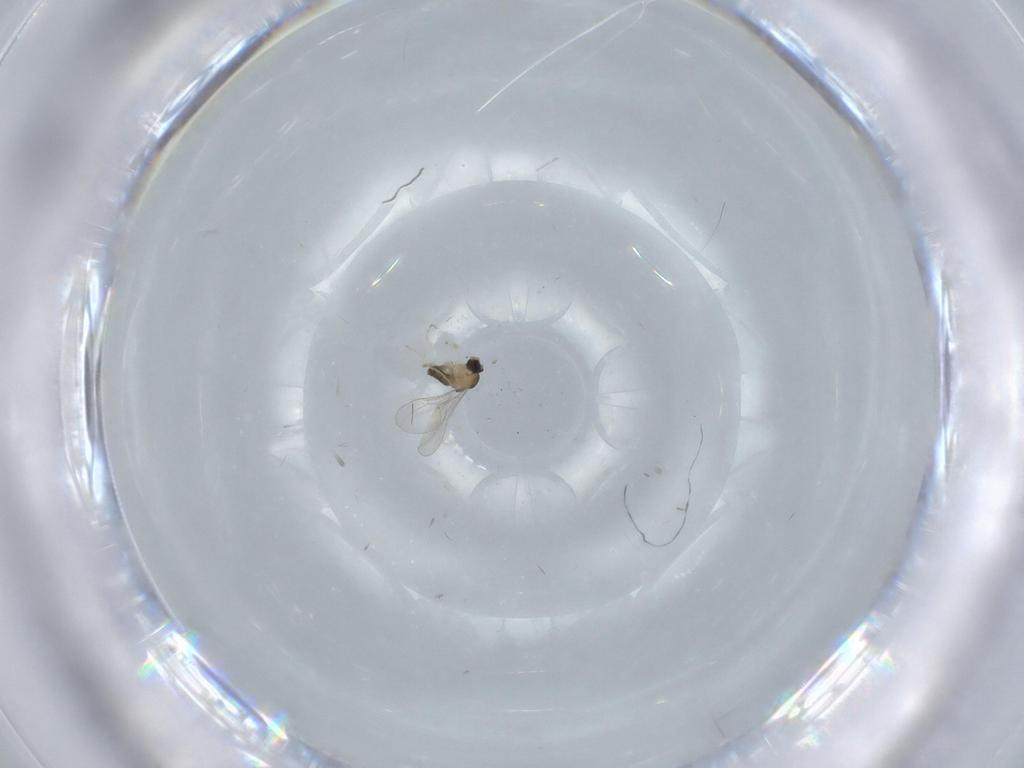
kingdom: Animalia
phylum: Arthropoda
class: Insecta
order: Diptera
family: Cecidomyiidae
